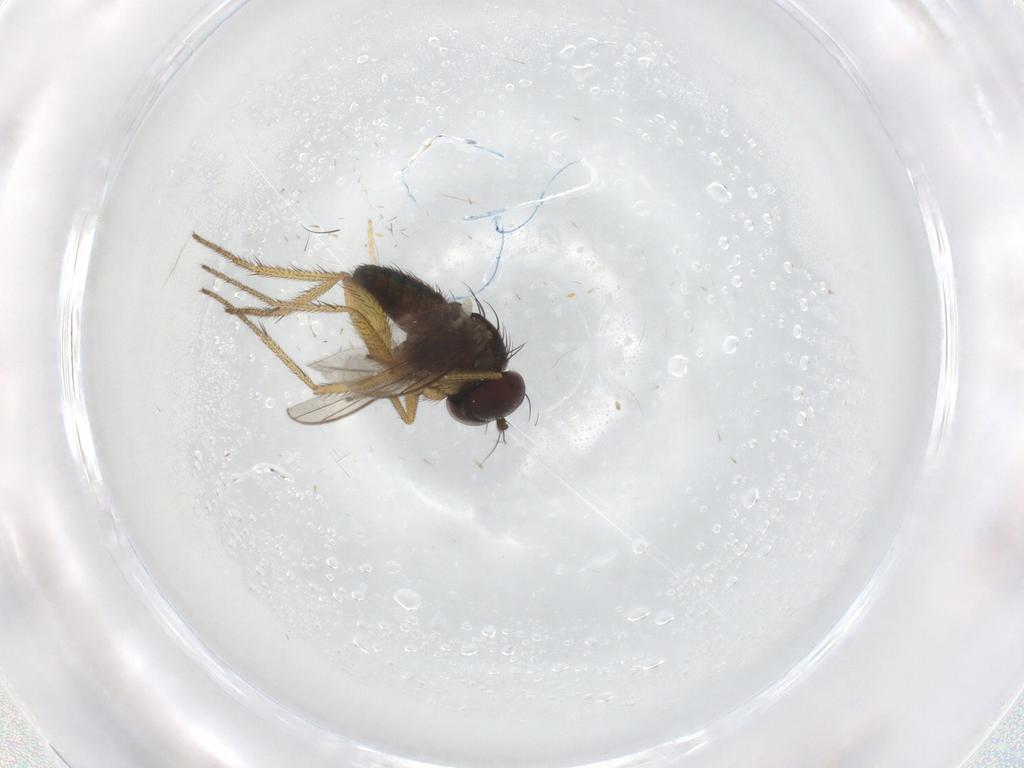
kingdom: Animalia
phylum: Arthropoda
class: Insecta
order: Diptera
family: Dolichopodidae
